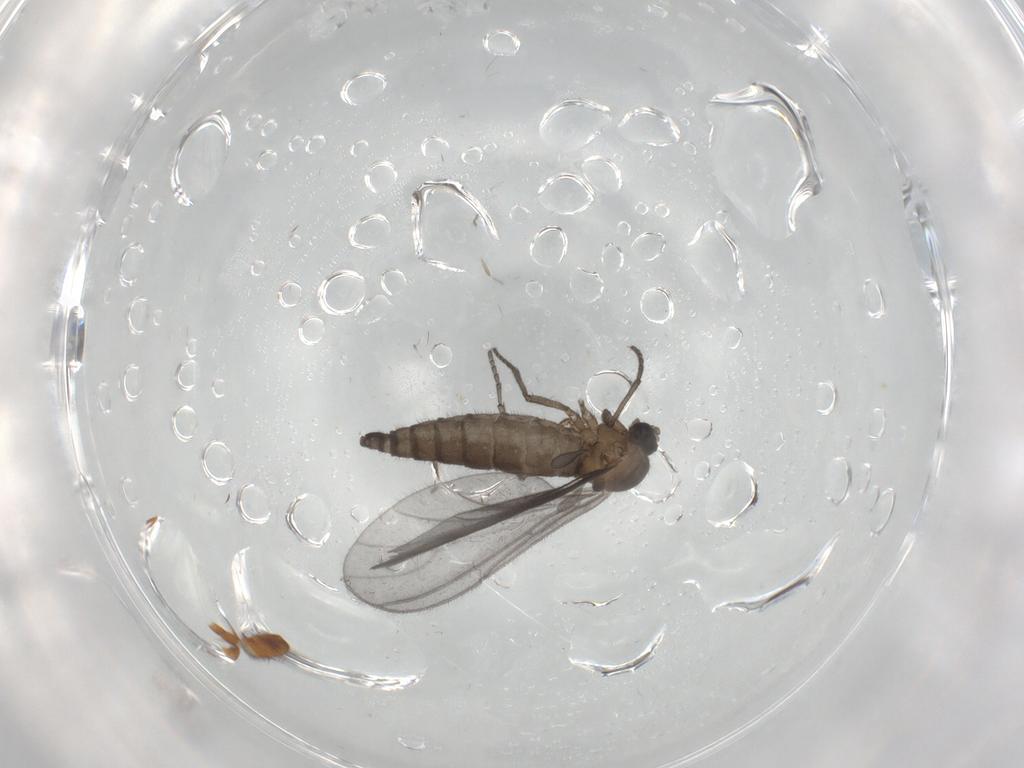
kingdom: Animalia
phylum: Arthropoda
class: Insecta
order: Diptera
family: Sciaridae
